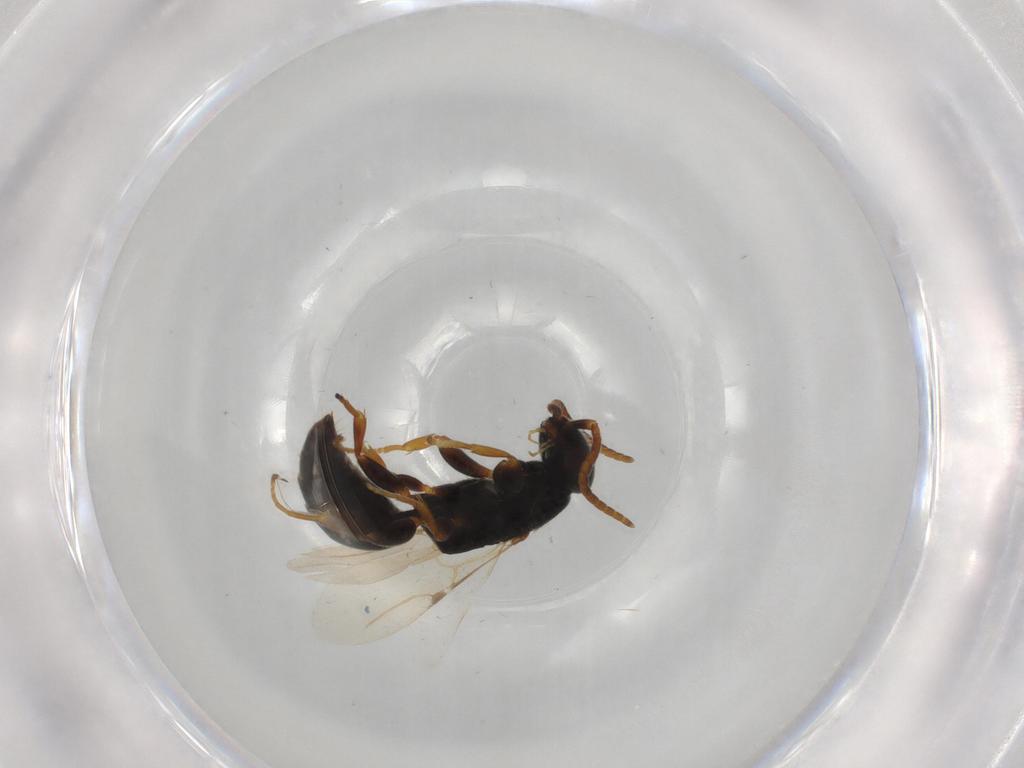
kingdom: Animalia
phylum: Arthropoda
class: Insecta
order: Hymenoptera
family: Bethylidae
